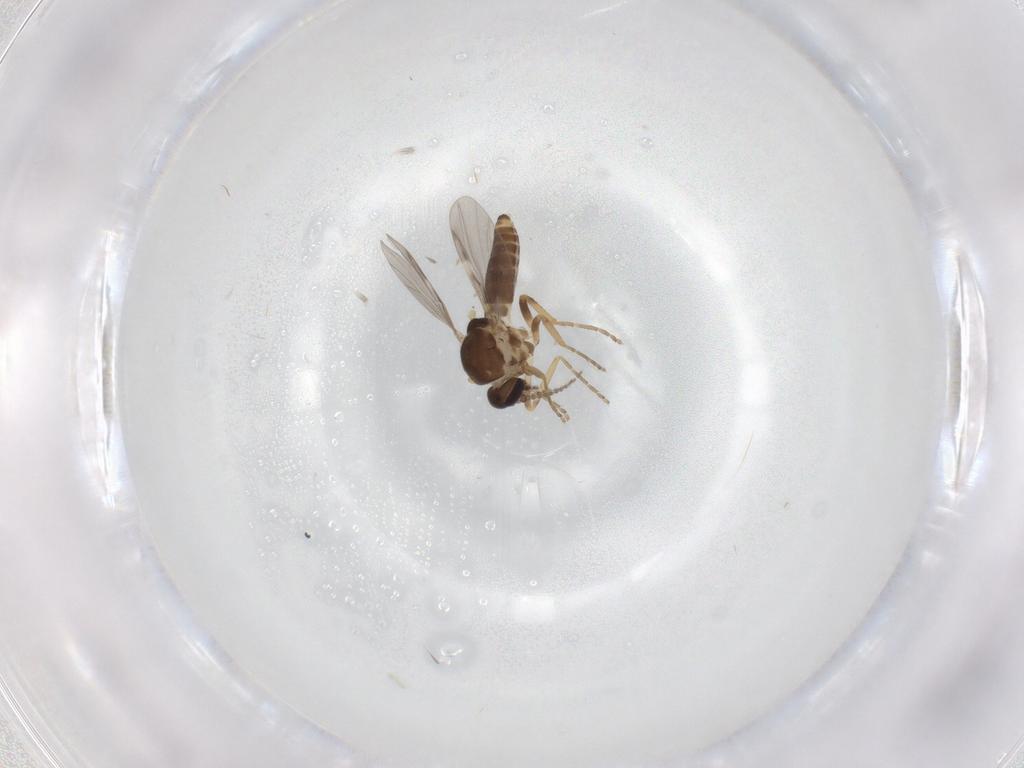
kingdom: Animalia
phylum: Arthropoda
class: Insecta
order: Diptera
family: Ceratopogonidae
